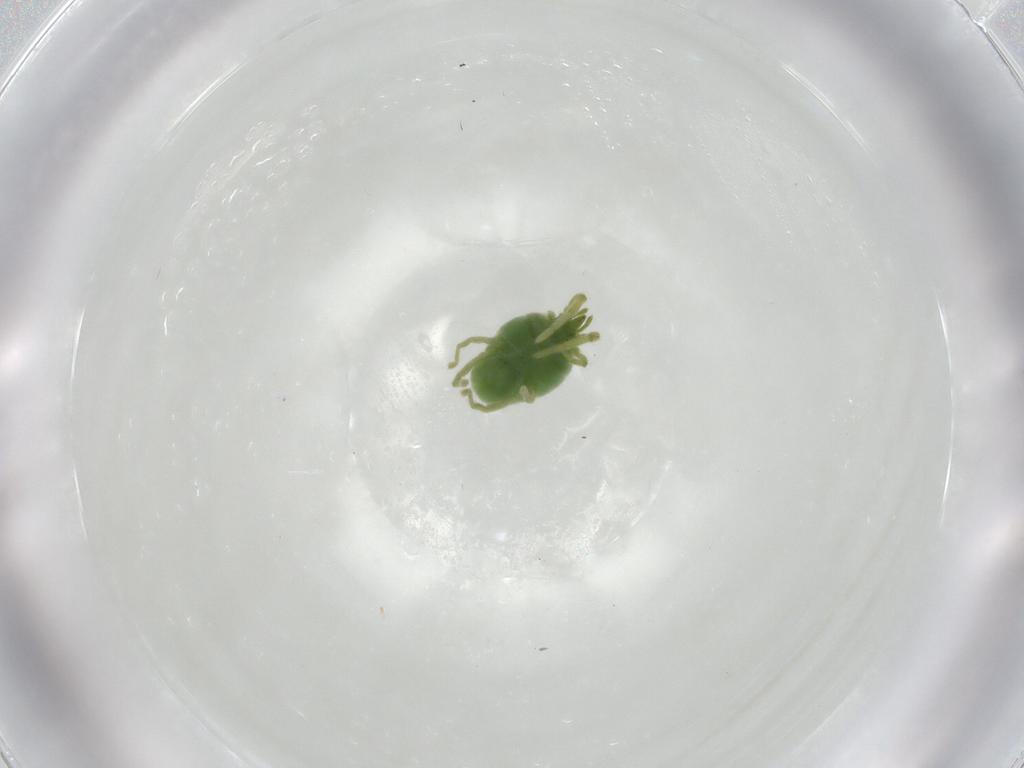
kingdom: Animalia
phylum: Arthropoda
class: Arachnida
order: Trombidiformes
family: Erythraeidae
